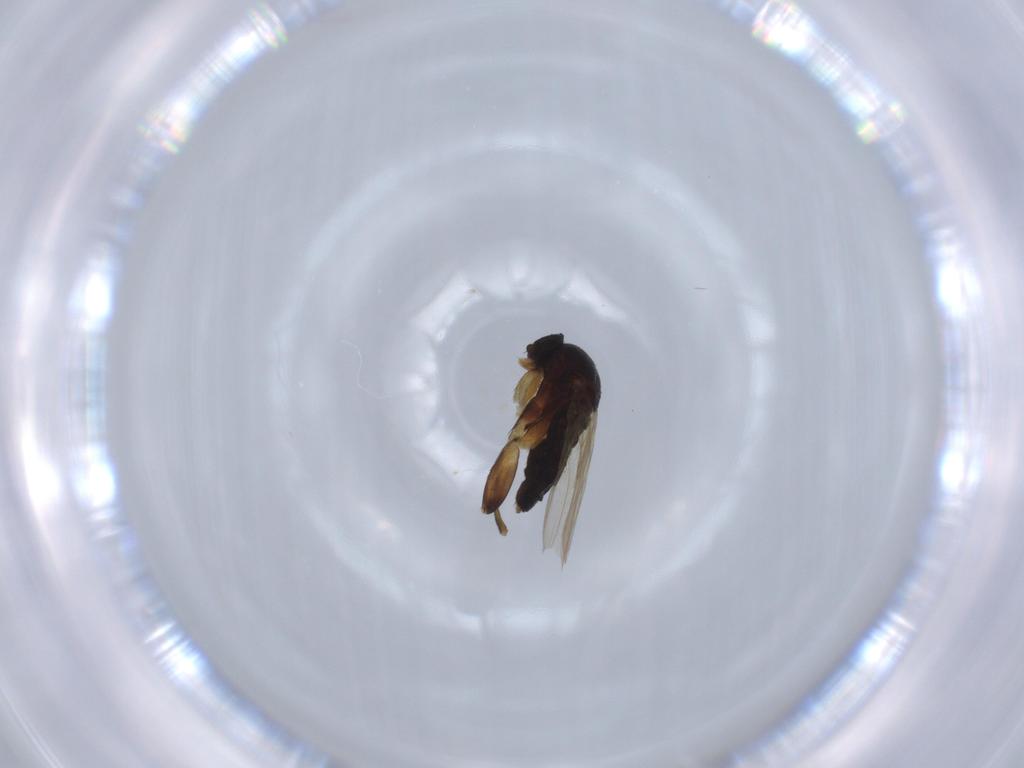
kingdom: Animalia
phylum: Arthropoda
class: Insecta
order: Diptera
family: Phoridae
